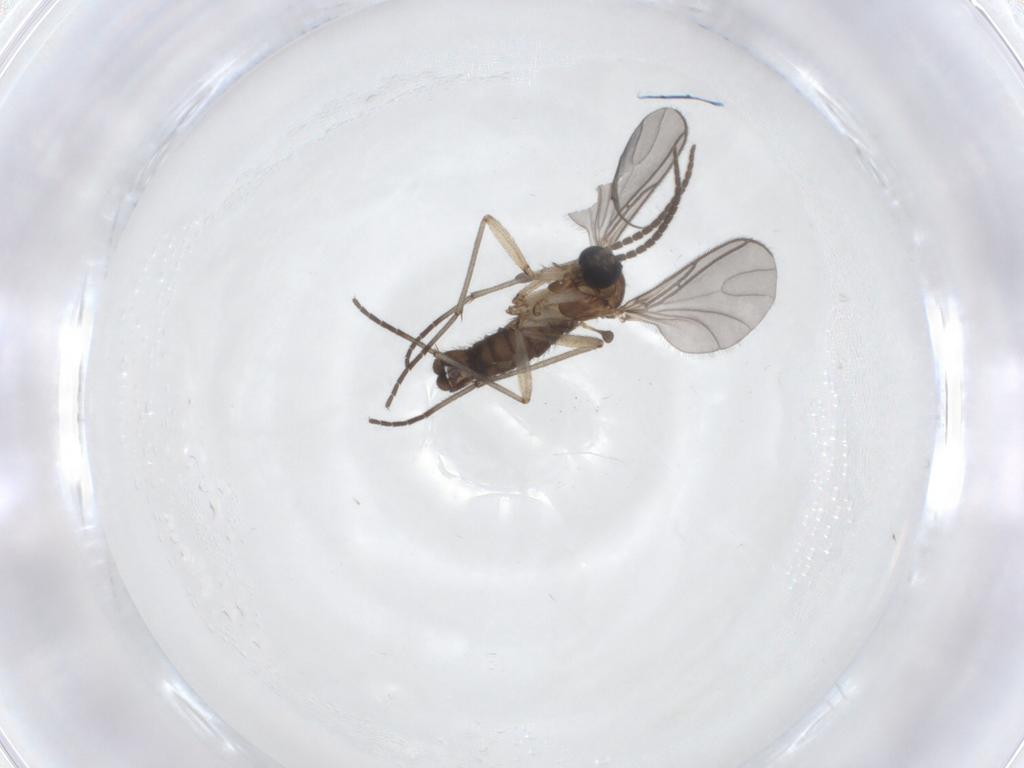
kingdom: Animalia
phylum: Arthropoda
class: Insecta
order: Diptera
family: Sciaridae
